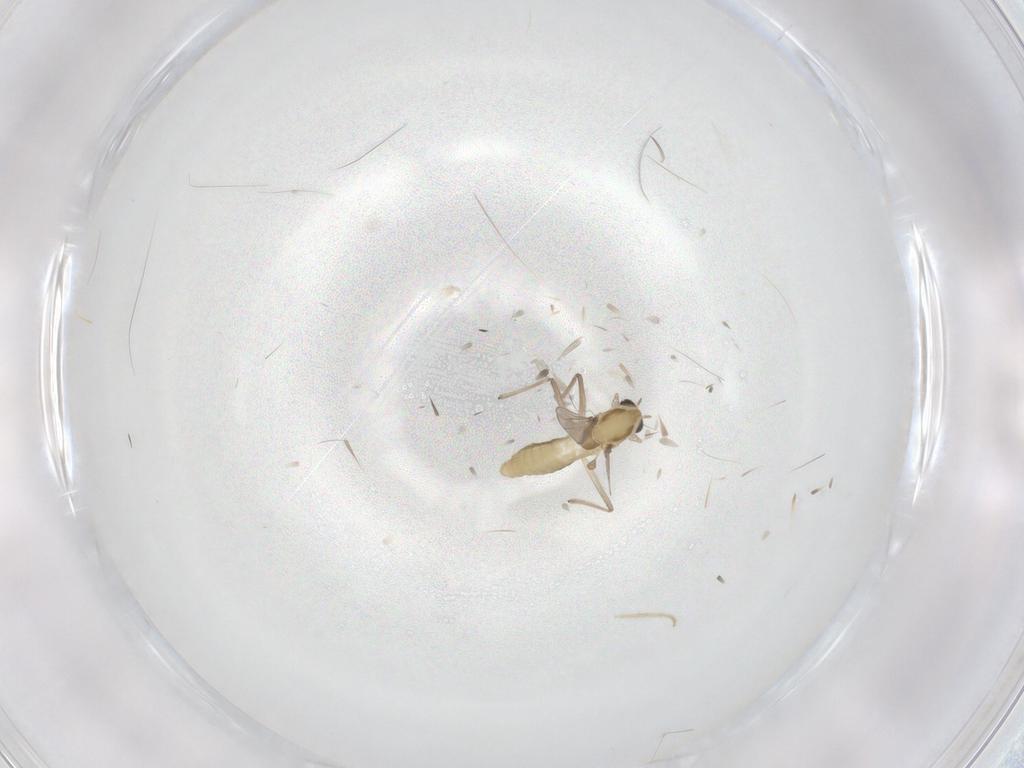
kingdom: Animalia
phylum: Arthropoda
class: Insecta
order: Diptera
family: Chironomidae
